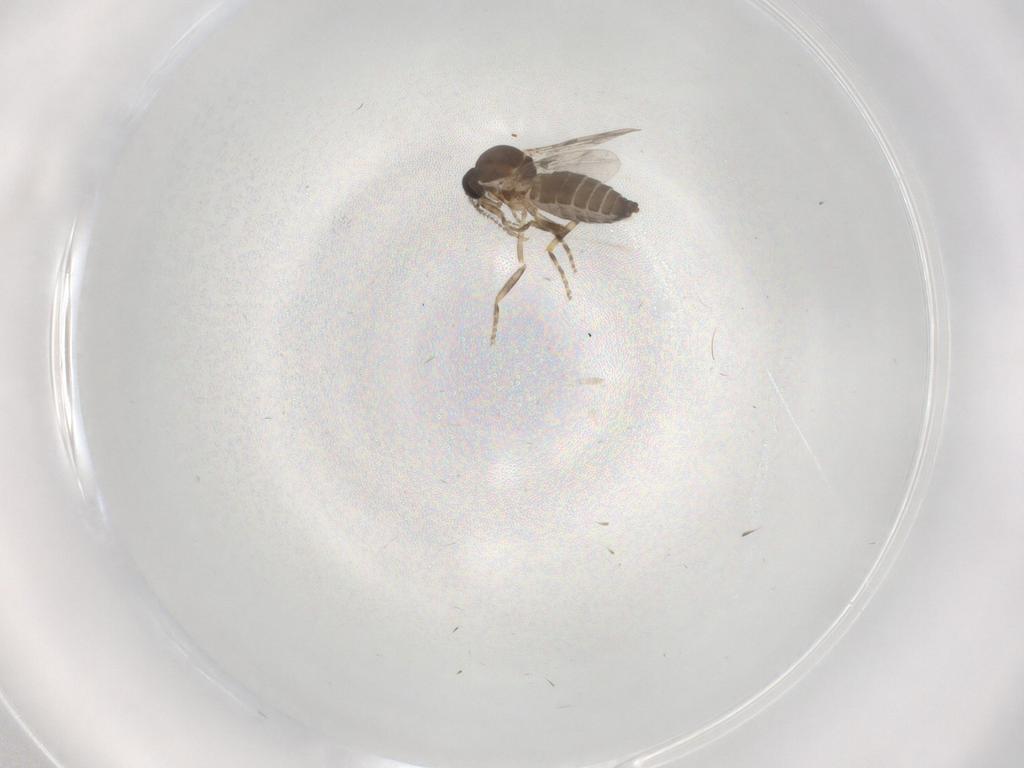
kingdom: Animalia
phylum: Arthropoda
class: Insecta
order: Diptera
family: Ceratopogonidae
